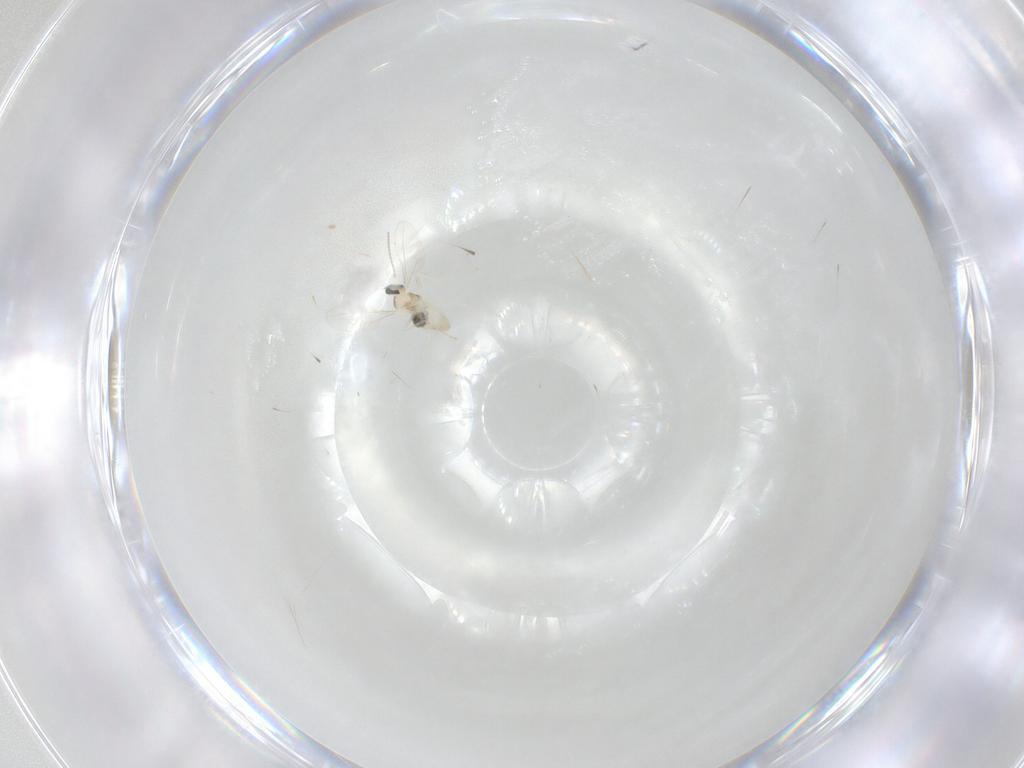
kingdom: Animalia
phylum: Arthropoda
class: Insecta
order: Diptera
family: Cecidomyiidae
